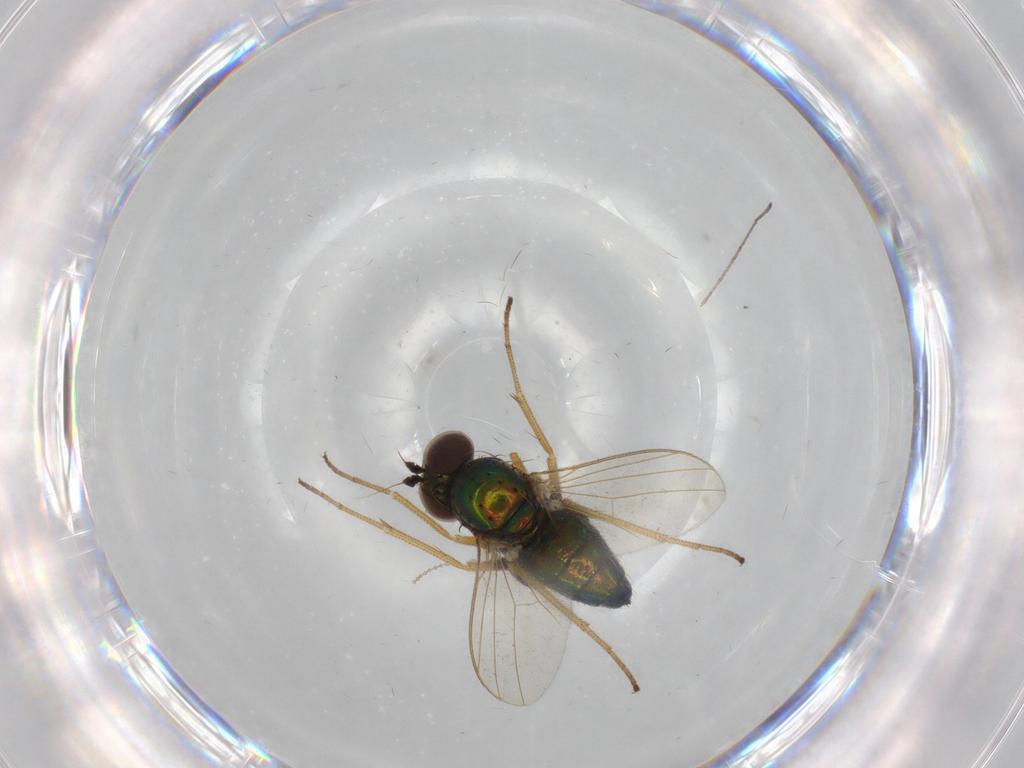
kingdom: Animalia
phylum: Arthropoda
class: Insecta
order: Diptera
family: Dolichopodidae
